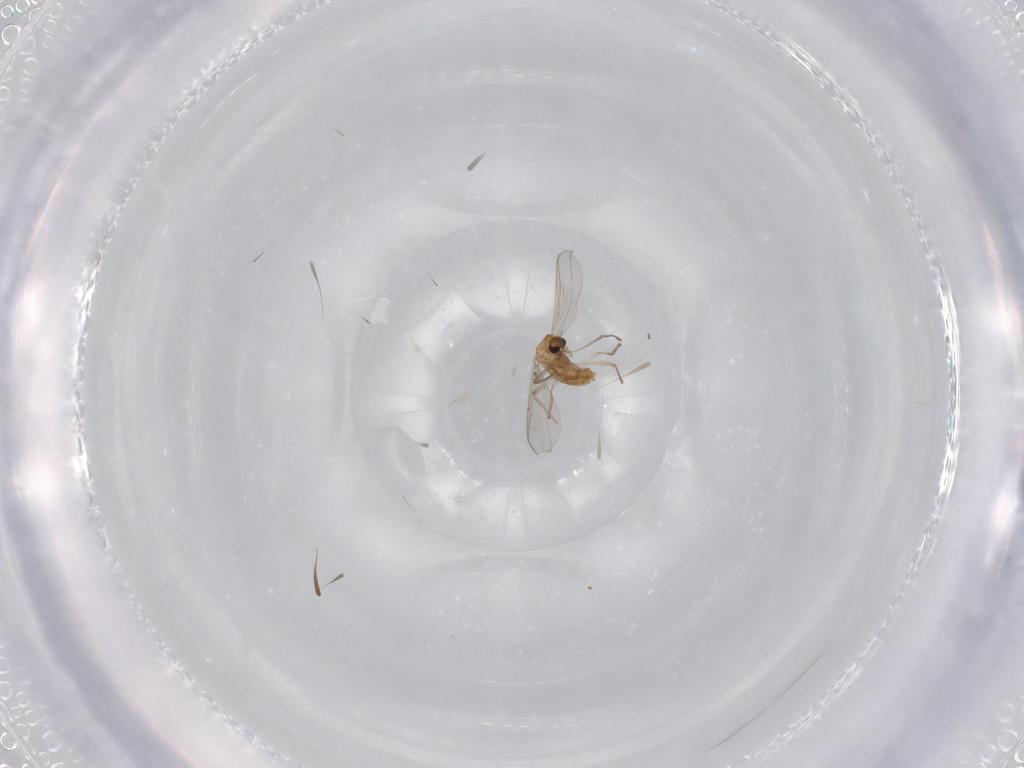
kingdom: Animalia
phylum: Arthropoda
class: Insecta
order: Diptera
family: Chironomidae
